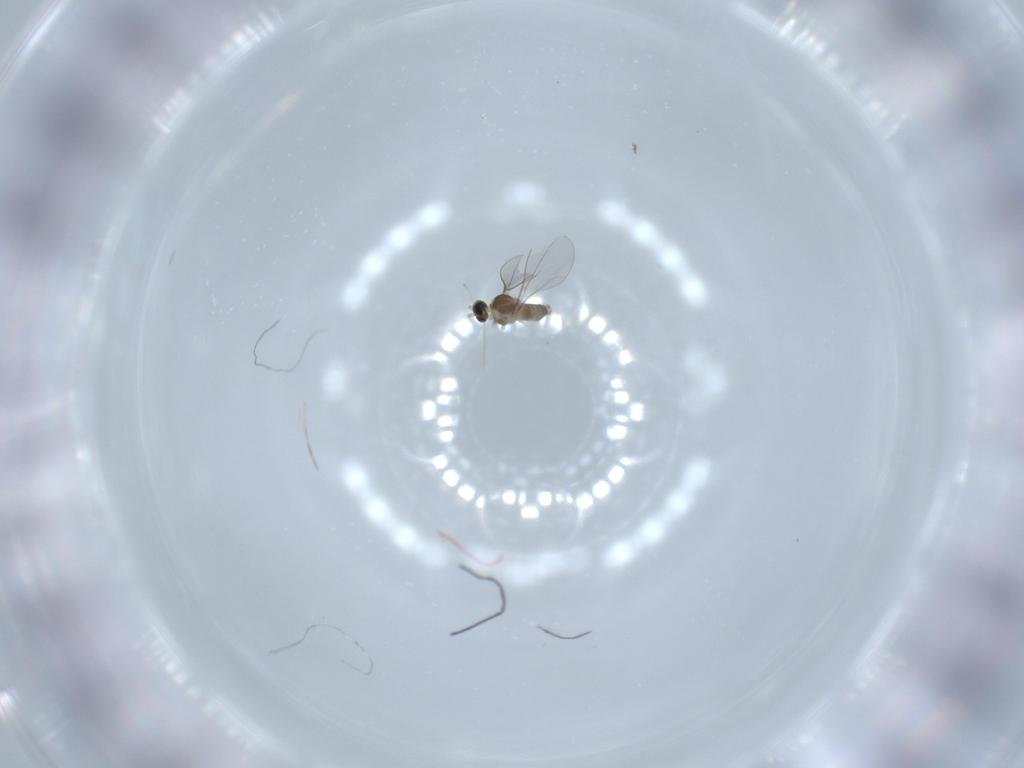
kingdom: Animalia
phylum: Arthropoda
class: Insecta
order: Diptera
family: Cecidomyiidae
